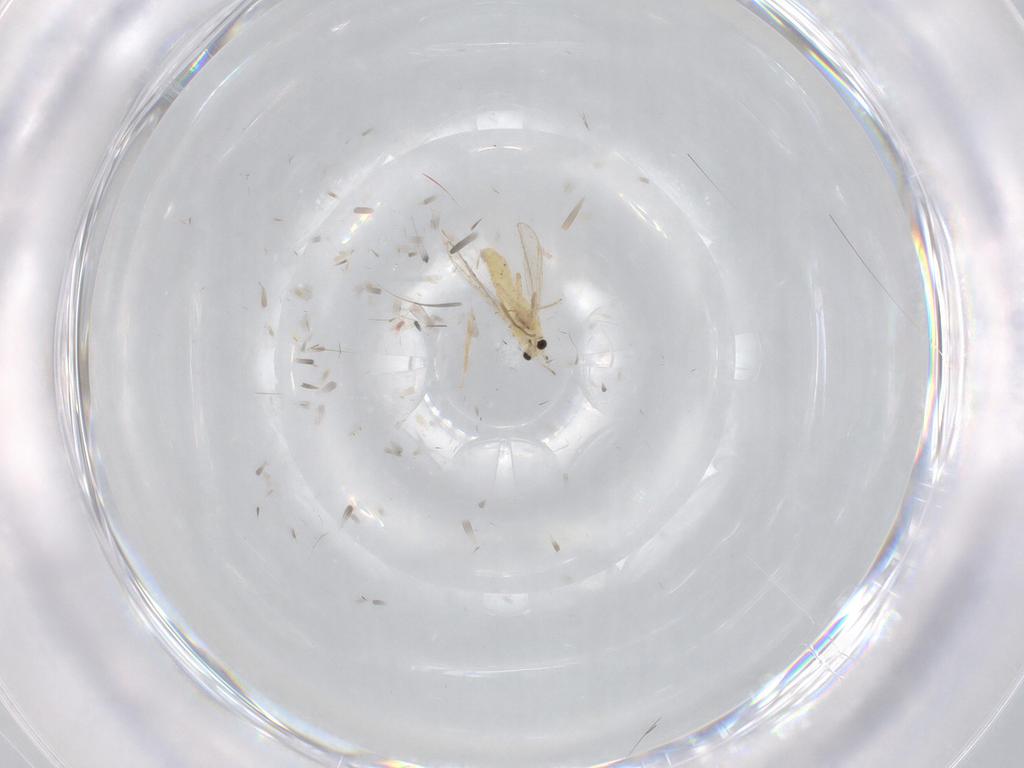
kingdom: Animalia
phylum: Arthropoda
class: Insecta
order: Diptera
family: Chironomidae
